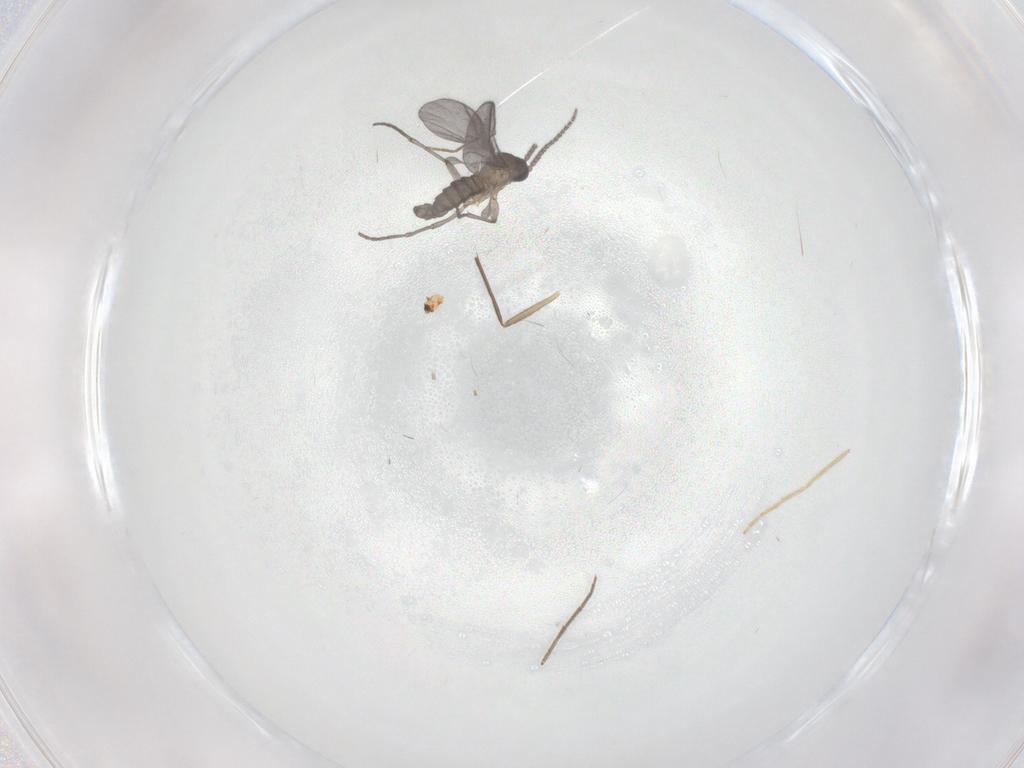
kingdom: Animalia
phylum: Arthropoda
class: Insecta
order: Diptera
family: Sciaridae
